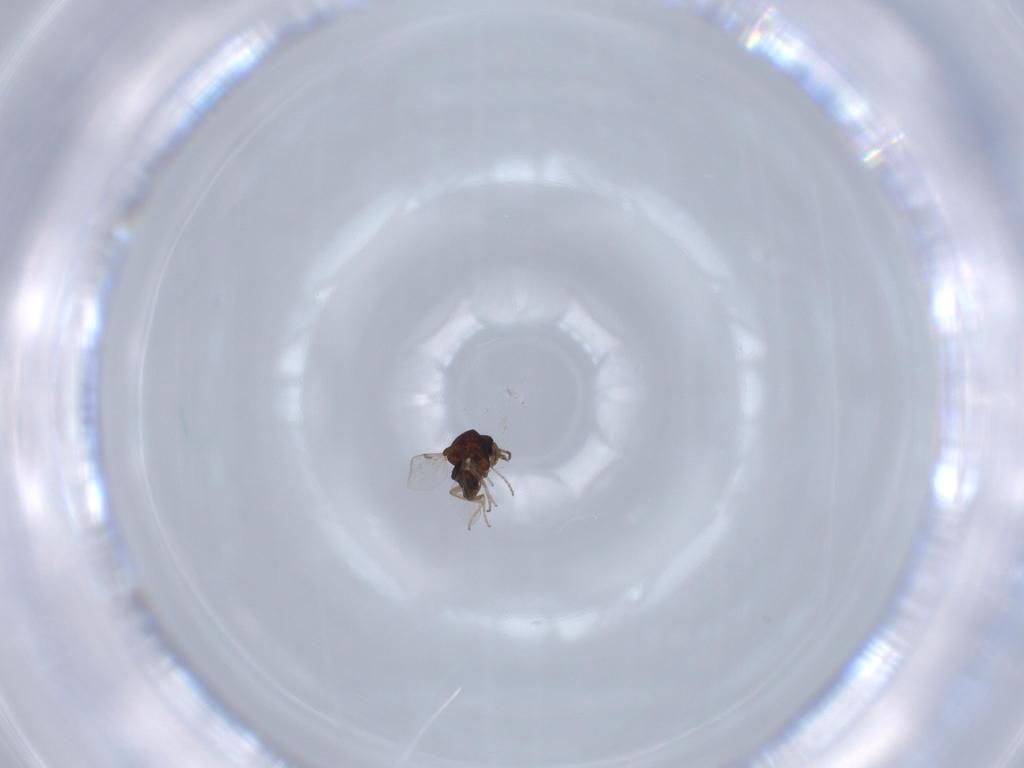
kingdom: Animalia
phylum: Arthropoda
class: Insecta
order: Diptera
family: Ceratopogonidae
